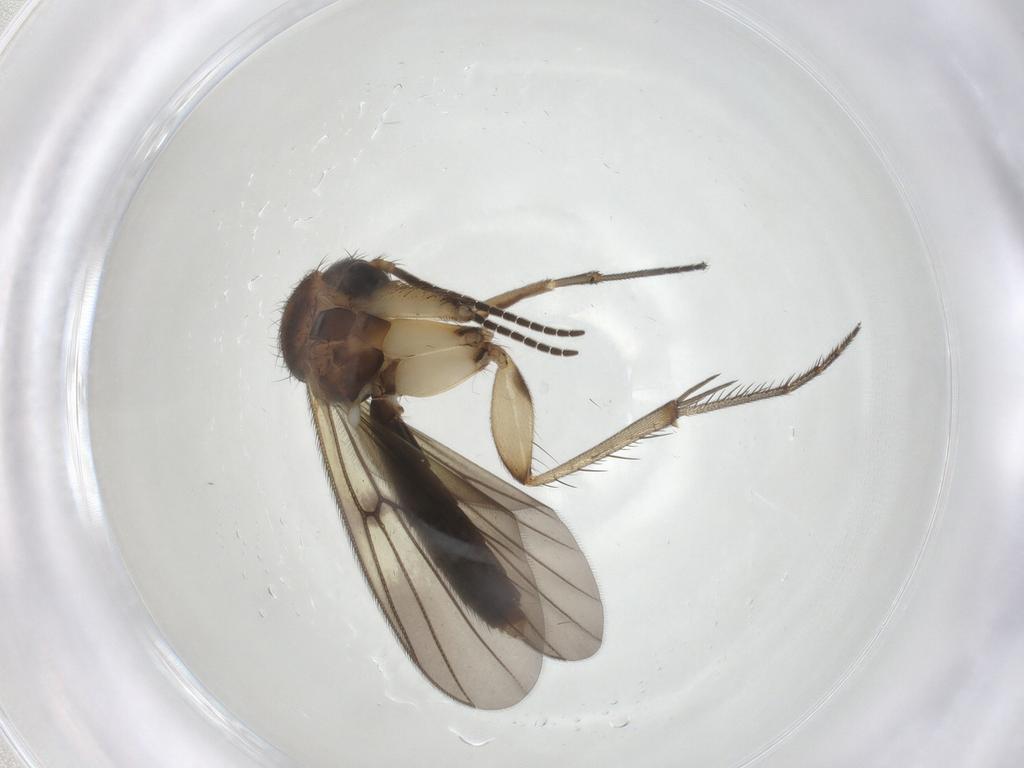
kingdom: Animalia
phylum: Arthropoda
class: Insecta
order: Diptera
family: Mycetophilidae
